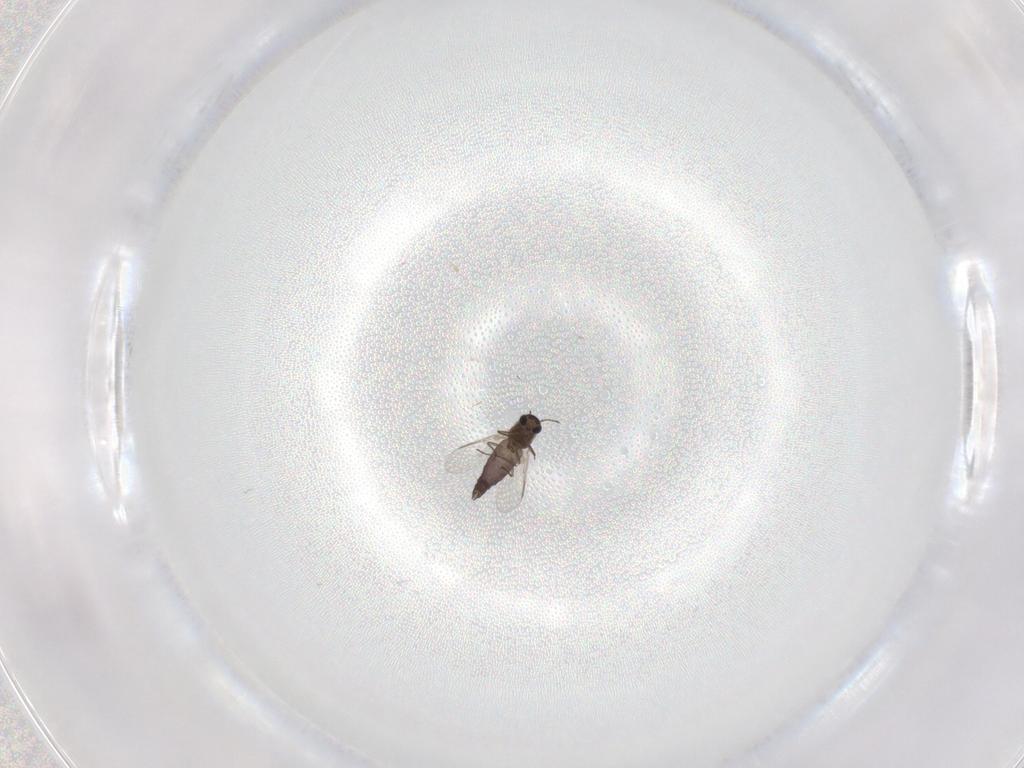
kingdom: Animalia
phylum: Arthropoda
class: Insecta
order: Diptera
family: Chironomidae
